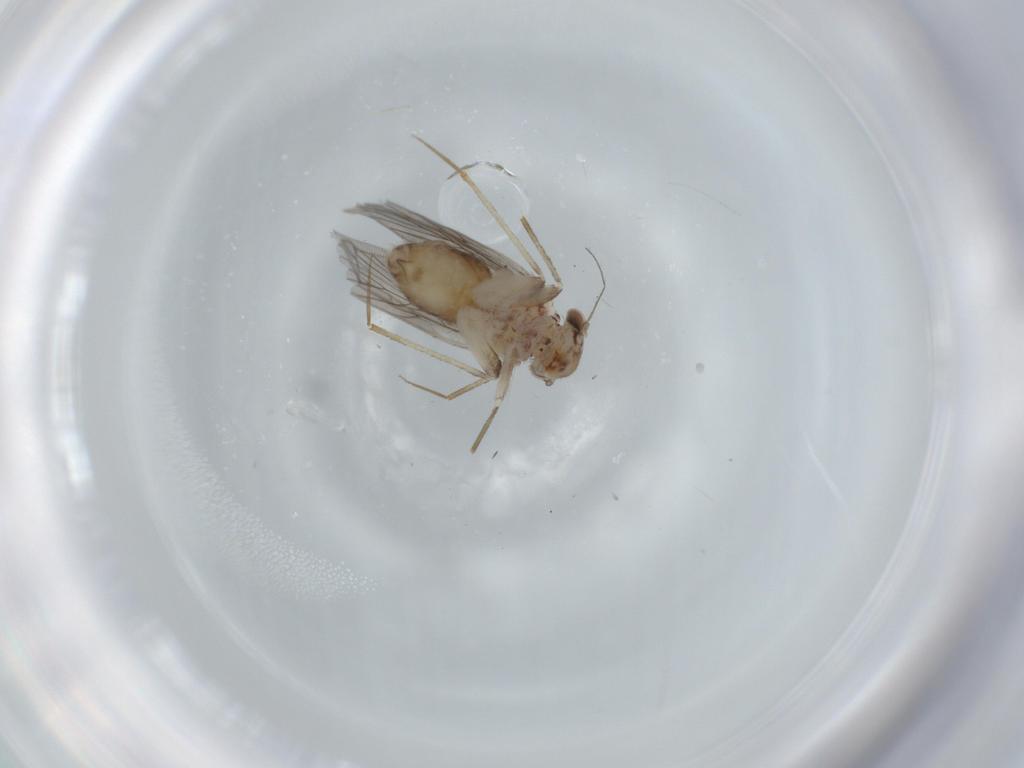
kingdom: Animalia
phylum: Arthropoda
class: Insecta
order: Psocodea
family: Lepidopsocidae
